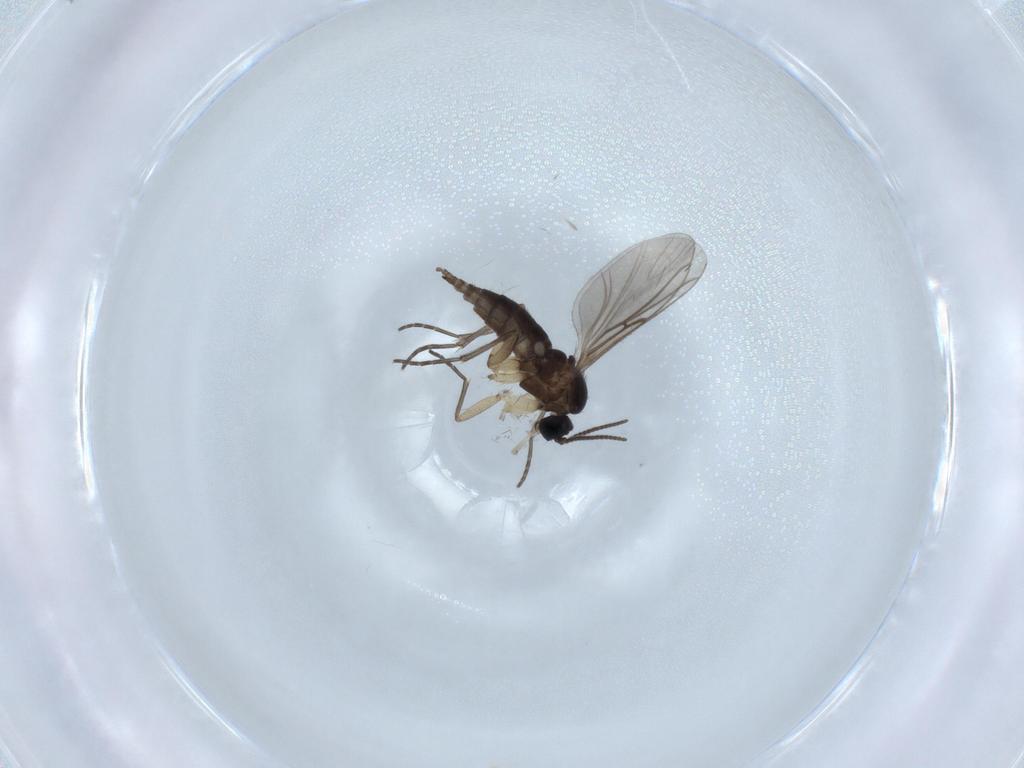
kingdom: Animalia
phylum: Arthropoda
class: Insecta
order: Diptera
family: Sciaridae
